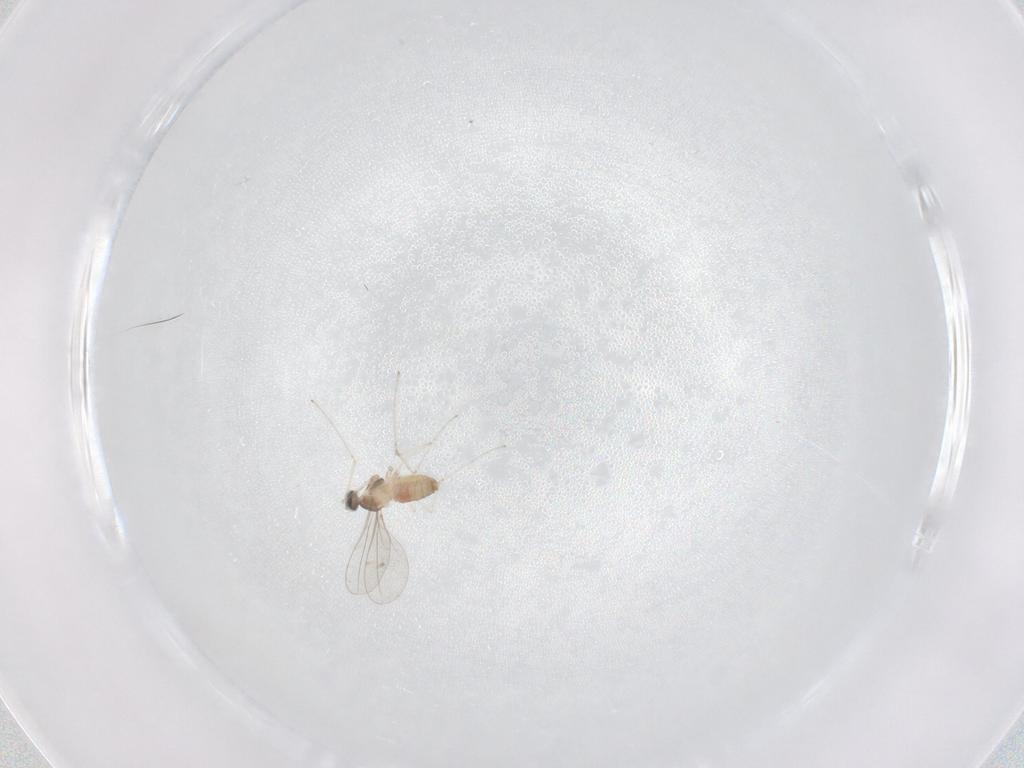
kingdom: Animalia
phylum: Arthropoda
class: Insecta
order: Diptera
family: Cecidomyiidae
